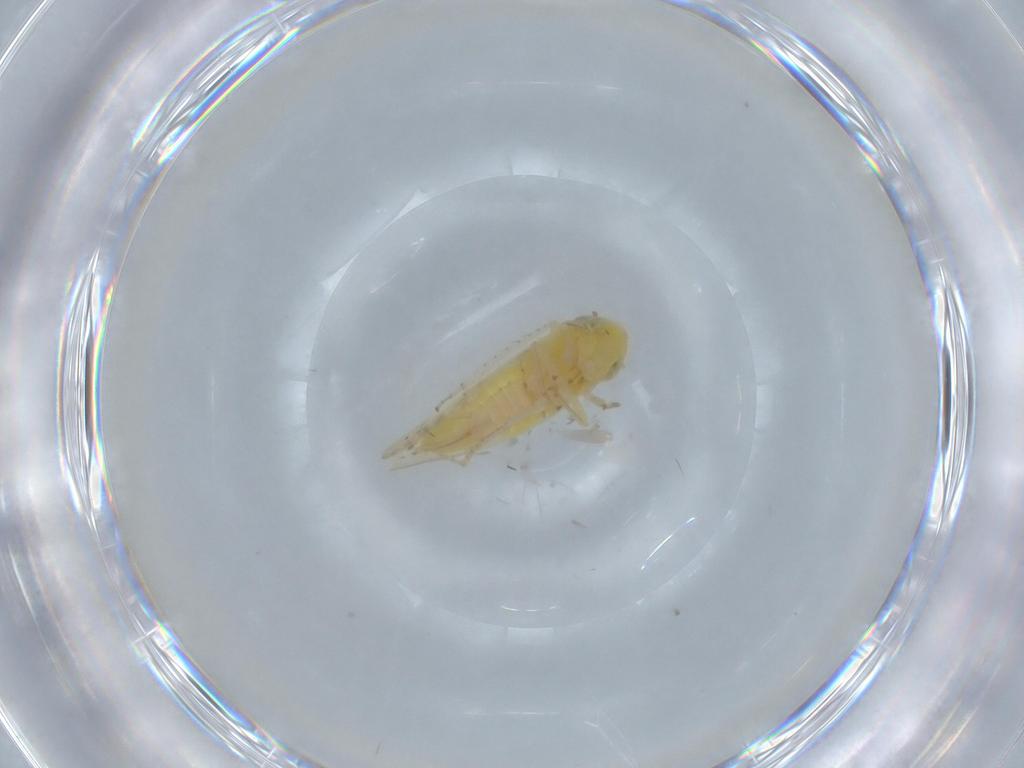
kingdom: Animalia
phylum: Arthropoda
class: Insecta
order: Hemiptera
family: Cicadellidae
